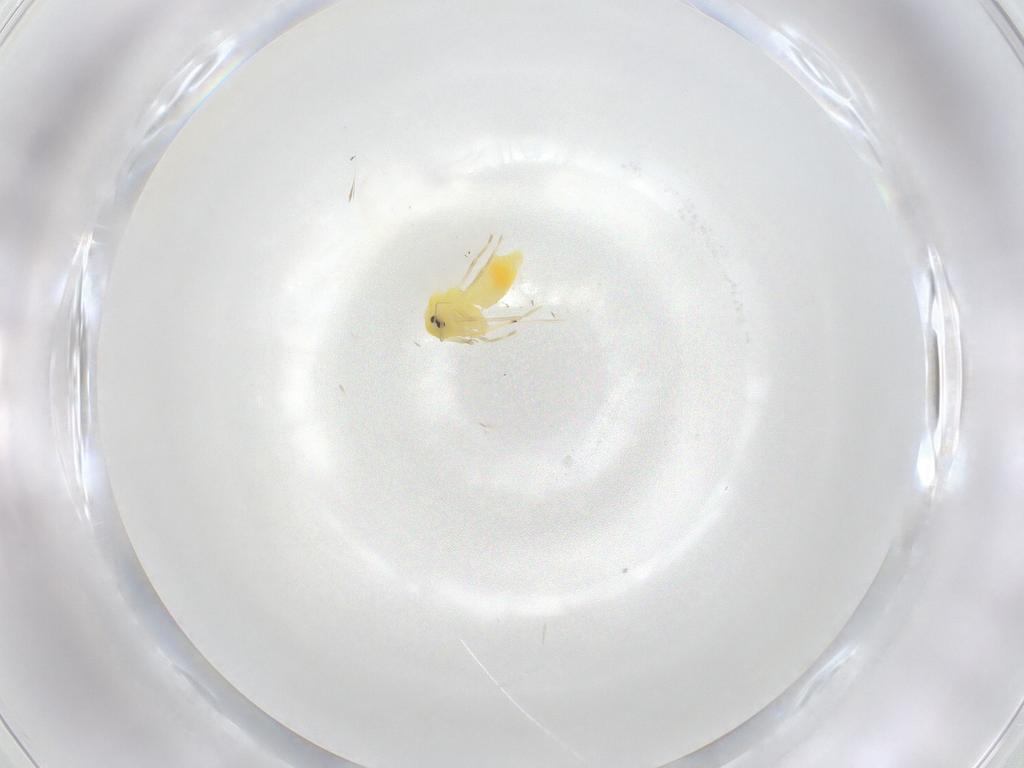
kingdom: Animalia
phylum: Arthropoda
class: Insecta
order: Hemiptera
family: Aleyrodidae
